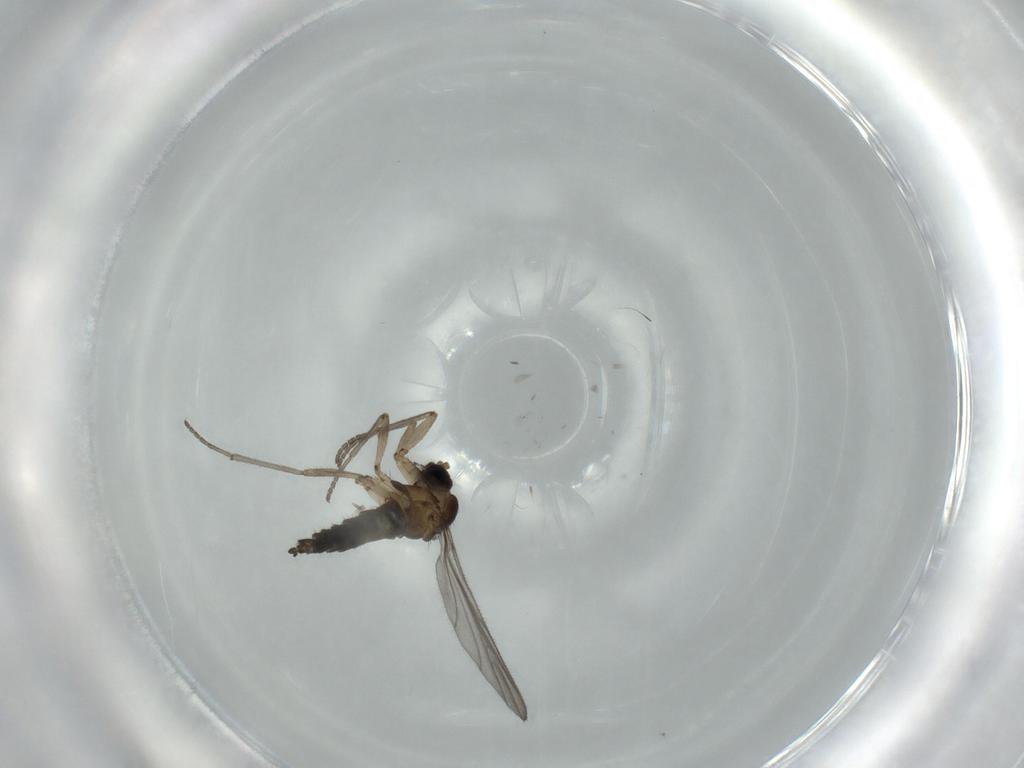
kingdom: Animalia
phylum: Arthropoda
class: Insecta
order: Diptera
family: Sciaridae
